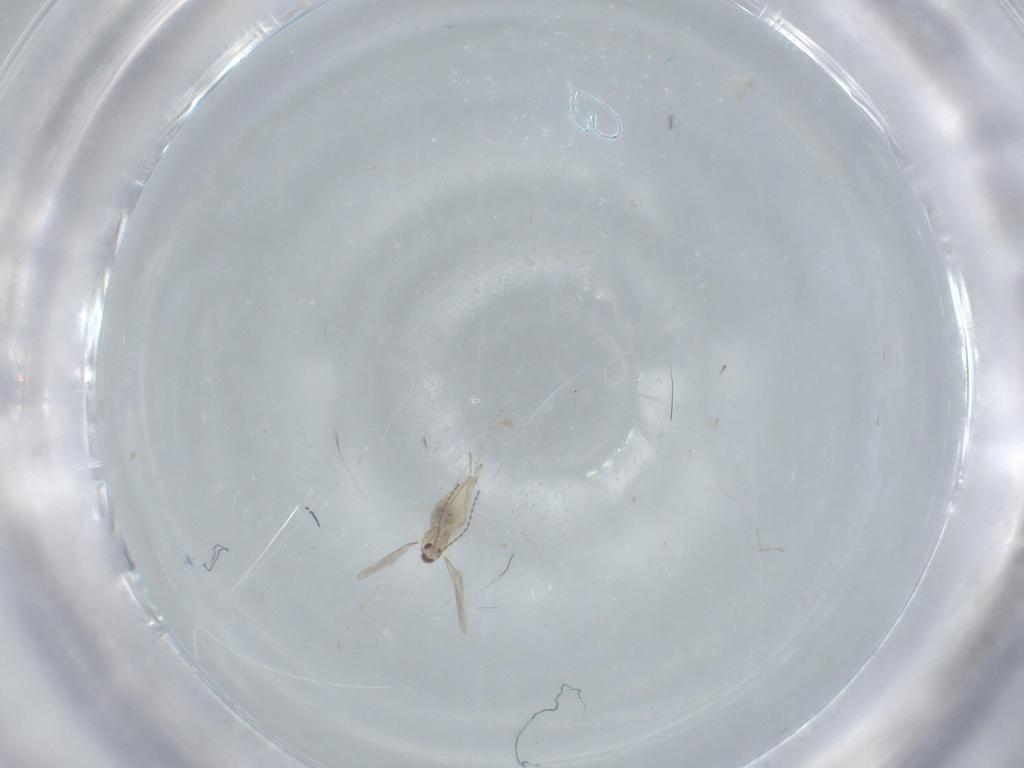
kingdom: Animalia
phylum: Arthropoda
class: Insecta
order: Diptera
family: Cecidomyiidae
